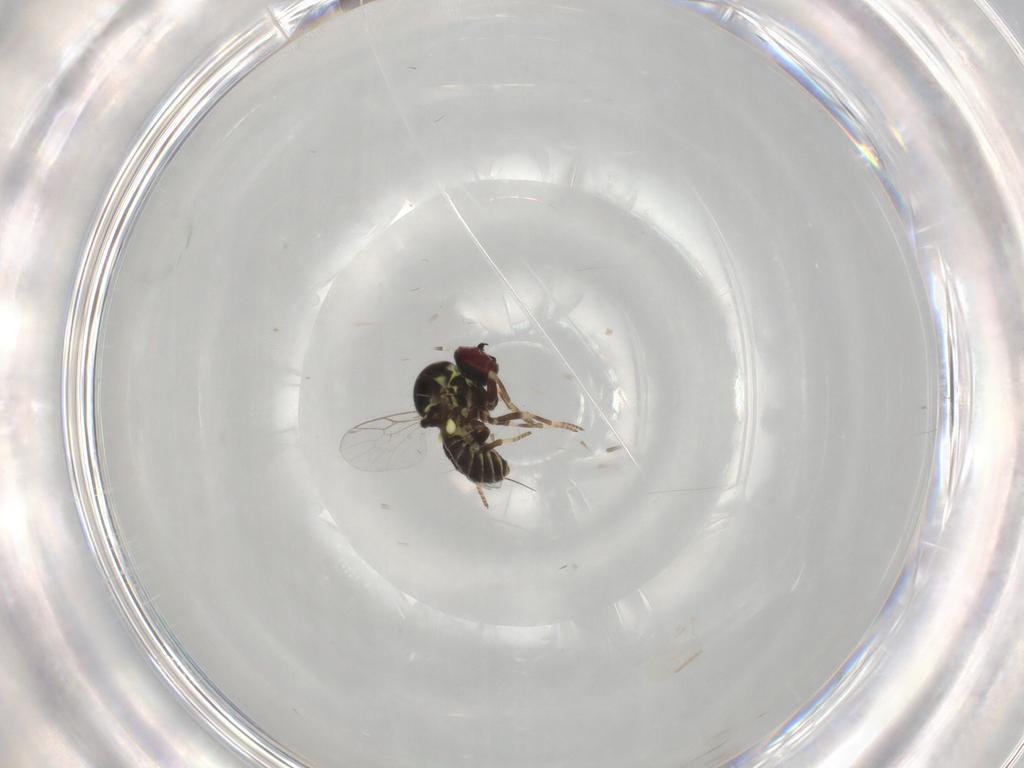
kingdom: Animalia
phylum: Arthropoda
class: Insecta
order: Diptera
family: Mythicomyiidae
